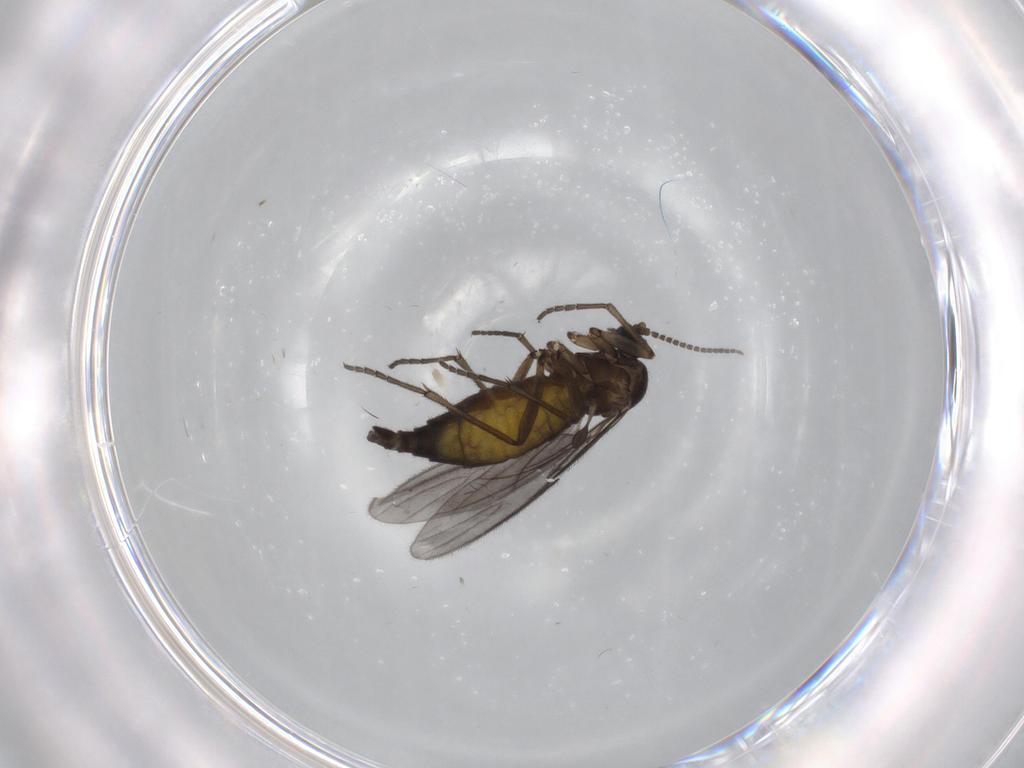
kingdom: Animalia
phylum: Arthropoda
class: Insecta
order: Diptera
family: Sciaridae
